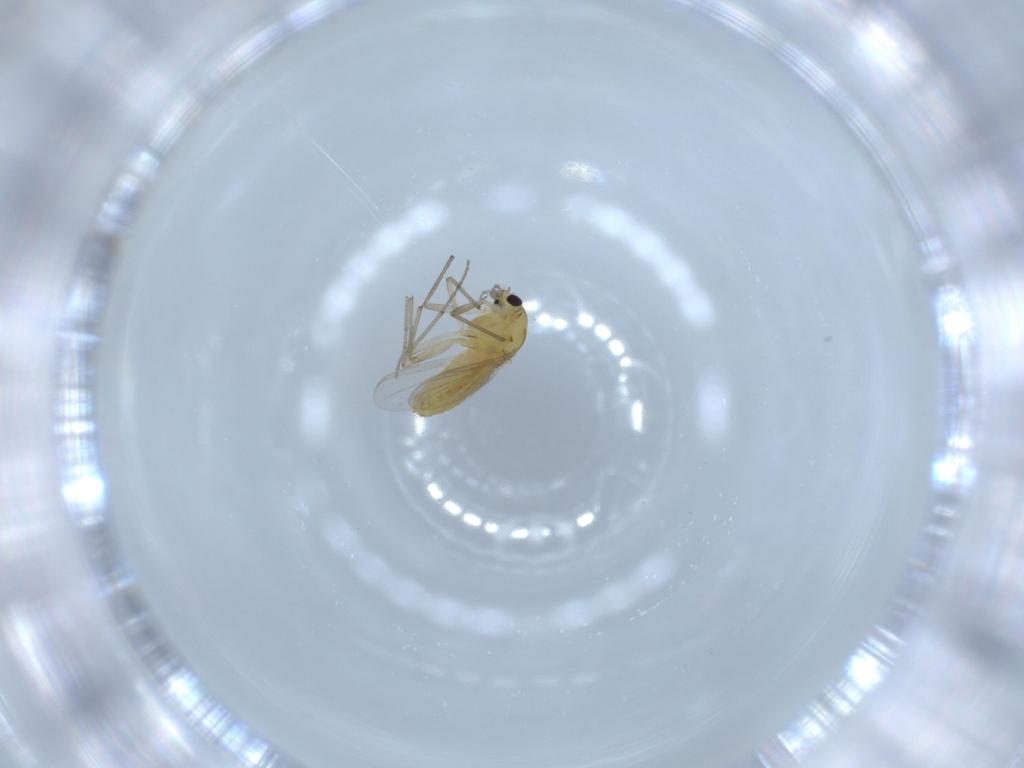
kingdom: Animalia
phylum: Arthropoda
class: Insecta
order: Diptera
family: Chironomidae
